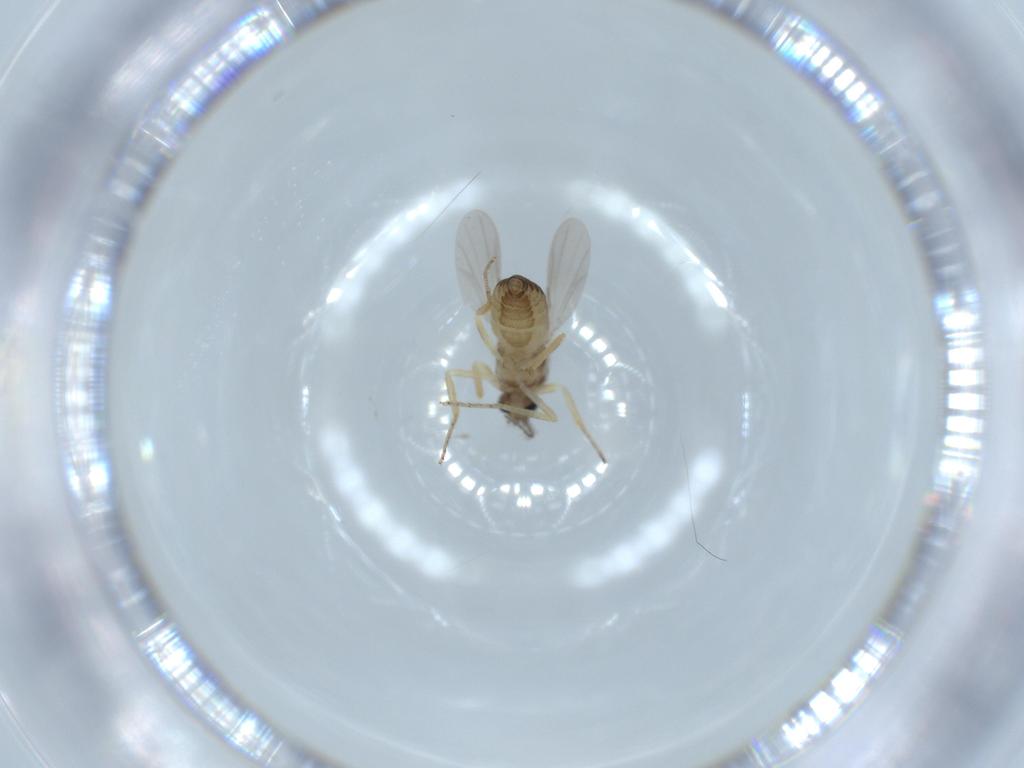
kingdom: Animalia
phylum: Arthropoda
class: Insecta
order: Diptera
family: Ceratopogonidae
